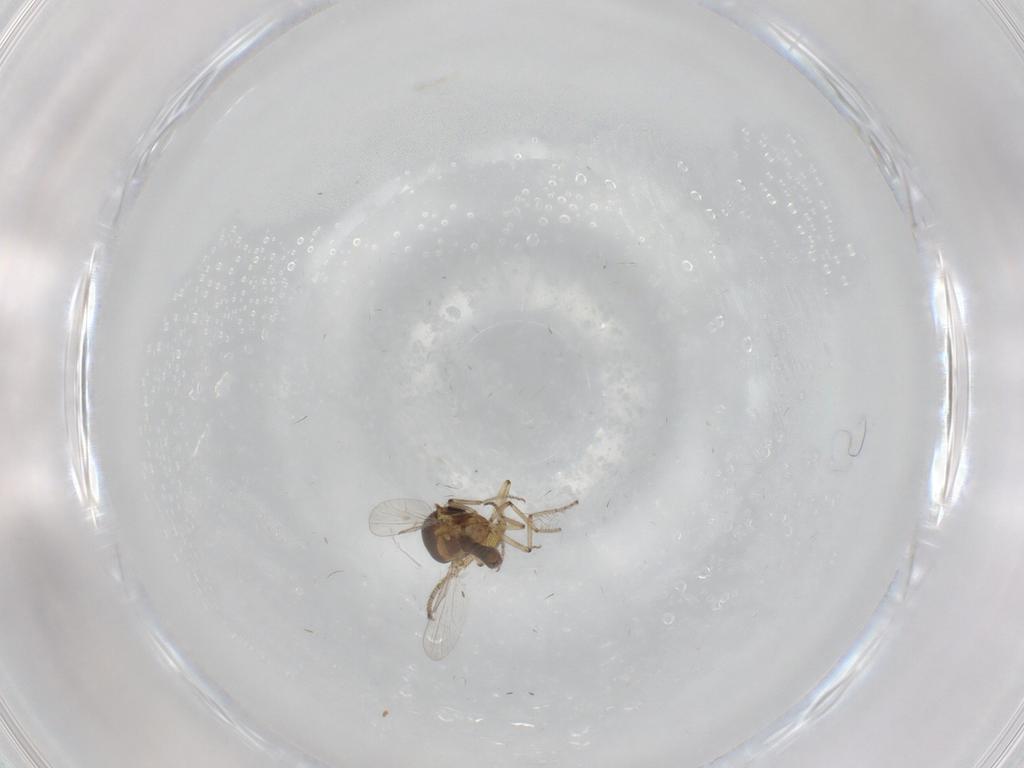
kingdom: Animalia
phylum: Arthropoda
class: Insecta
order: Diptera
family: Ceratopogonidae
